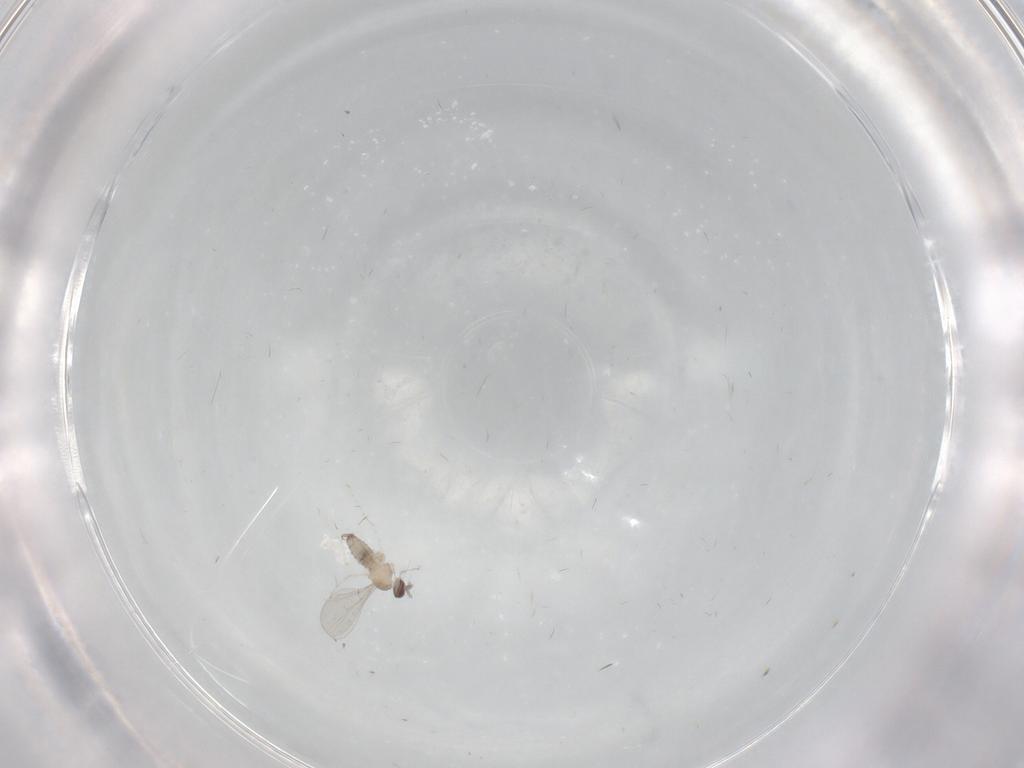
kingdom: Animalia
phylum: Arthropoda
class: Insecta
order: Diptera
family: Cecidomyiidae
